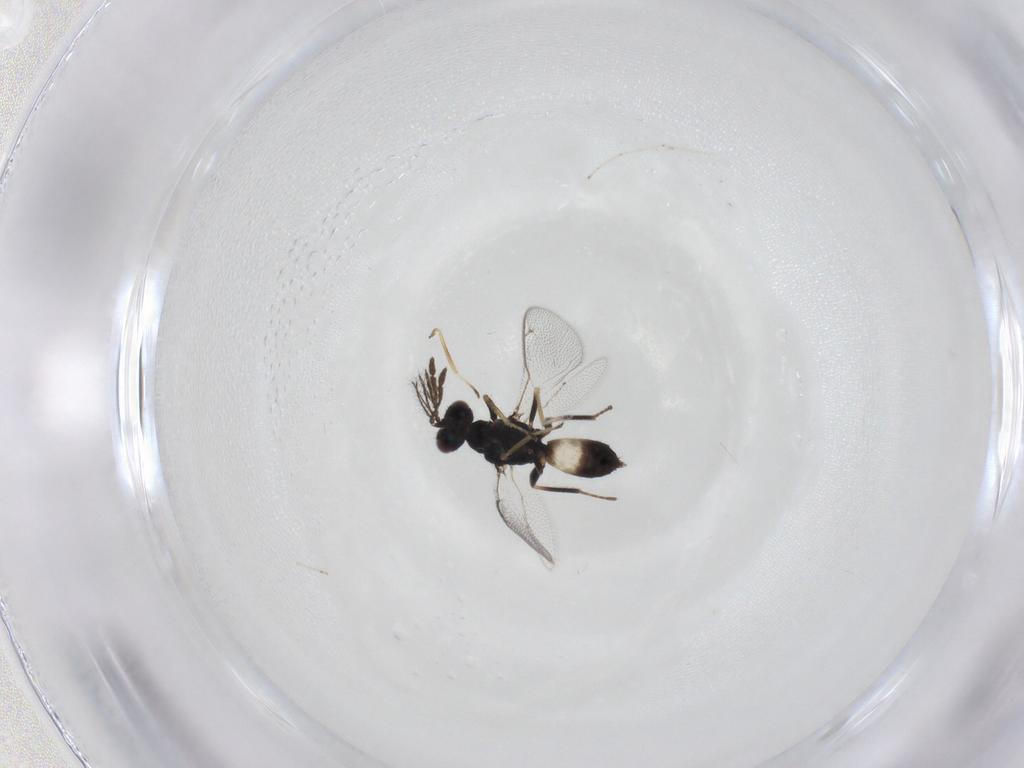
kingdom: Animalia
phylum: Arthropoda
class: Insecta
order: Hymenoptera
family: Eulophidae
